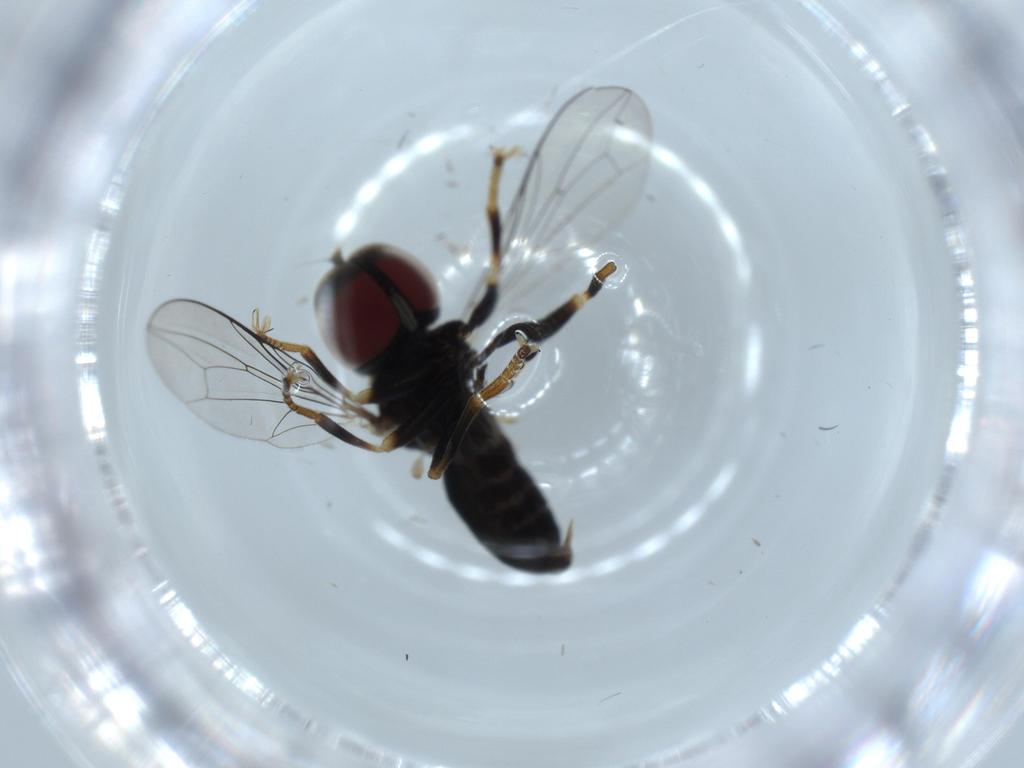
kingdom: Animalia
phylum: Arthropoda
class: Insecta
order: Diptera
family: Pipunculidae
